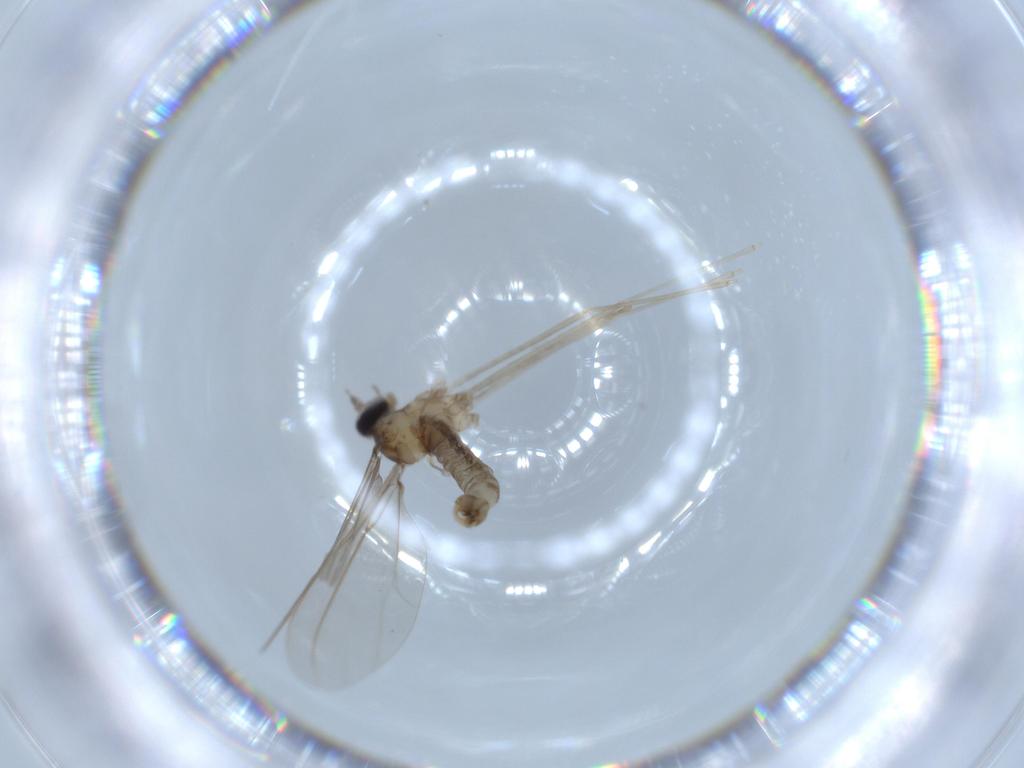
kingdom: Animalia
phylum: Arthropoda
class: Insecta
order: Diptera
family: Cecidomyiidae
